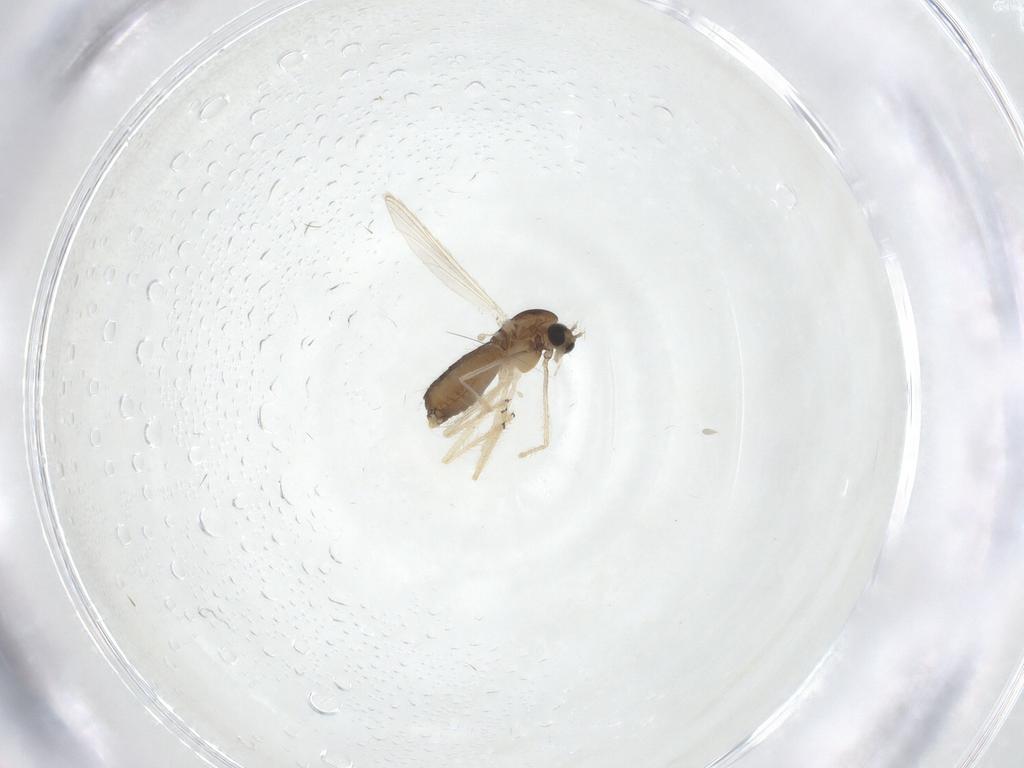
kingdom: Animalia
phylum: Arthropoda
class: Insecta
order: Diptera
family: Chironomidae
